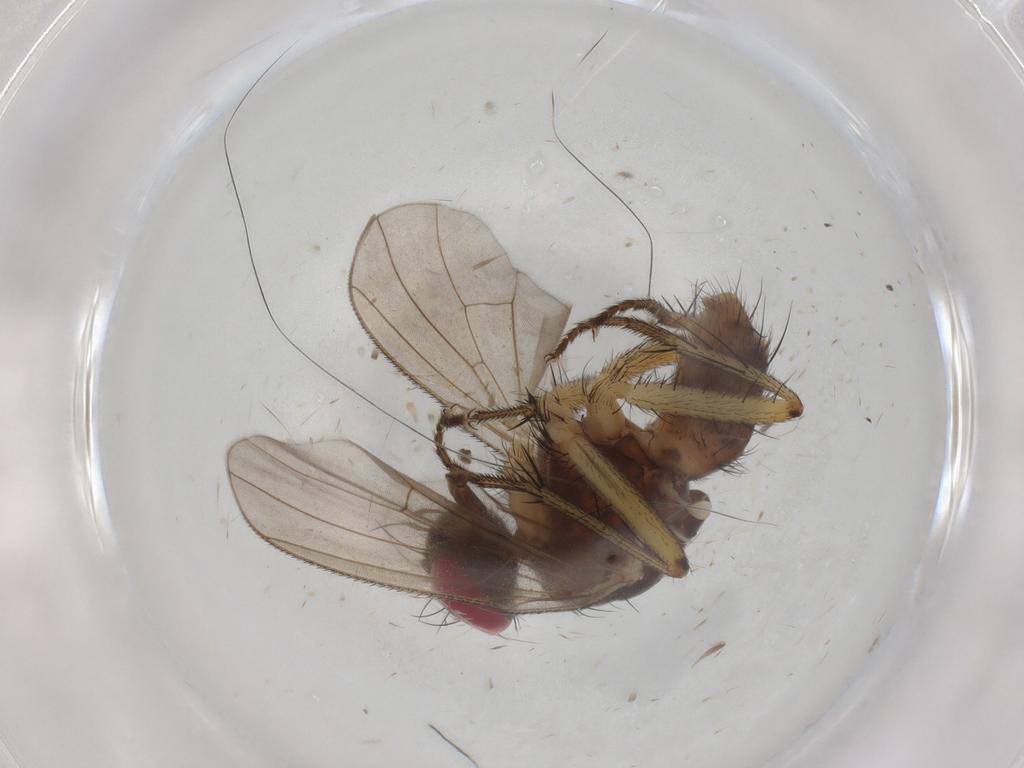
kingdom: Animalia
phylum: Arthropoda
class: Insecta
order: Diptera
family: Muscidae
